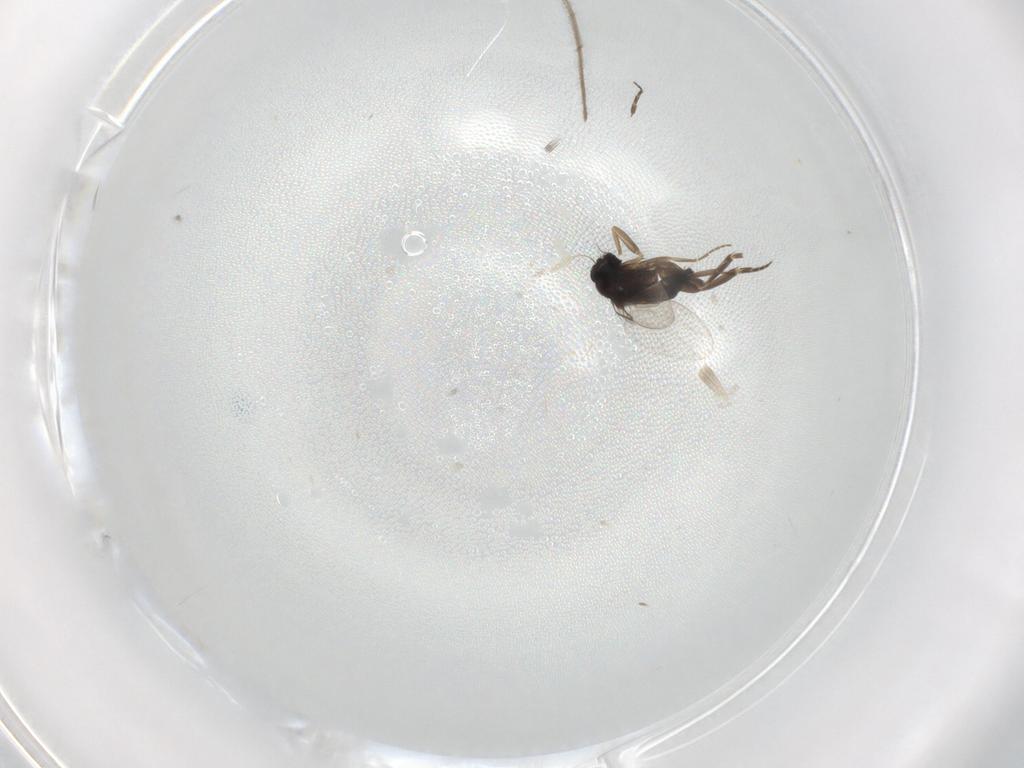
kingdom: Animalia
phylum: Arthropoda
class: Insecta
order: Diptera
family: Phoridae
